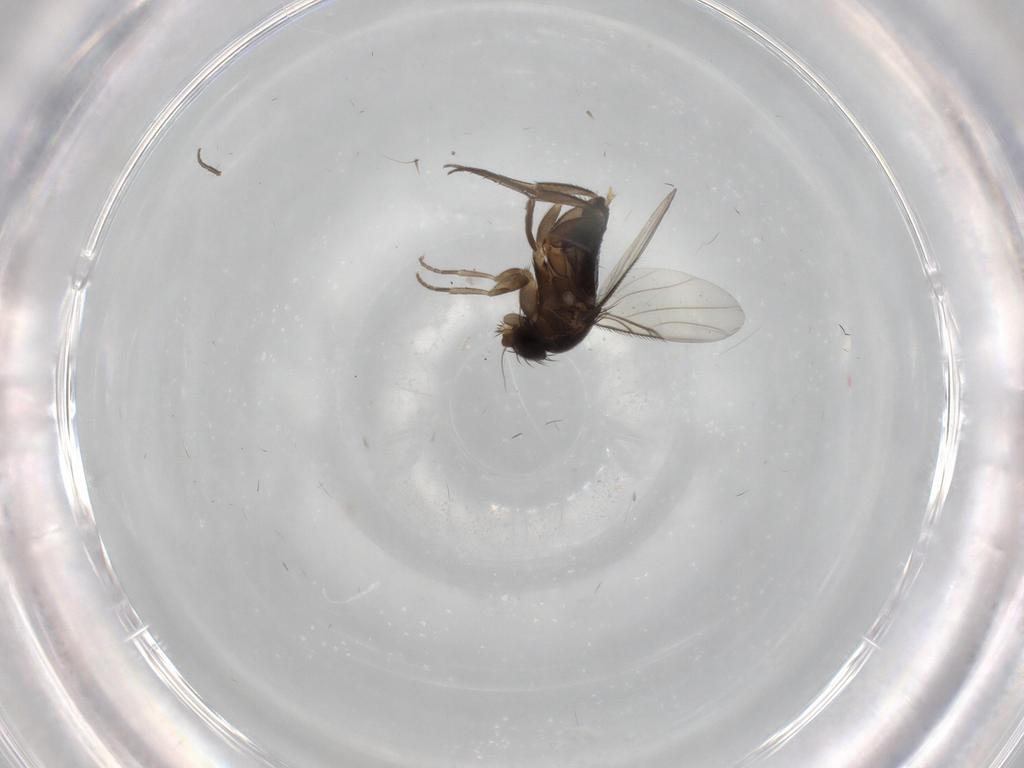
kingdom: Animalia
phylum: Arthropoda
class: Insecta
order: Diptera
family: Phoridae
